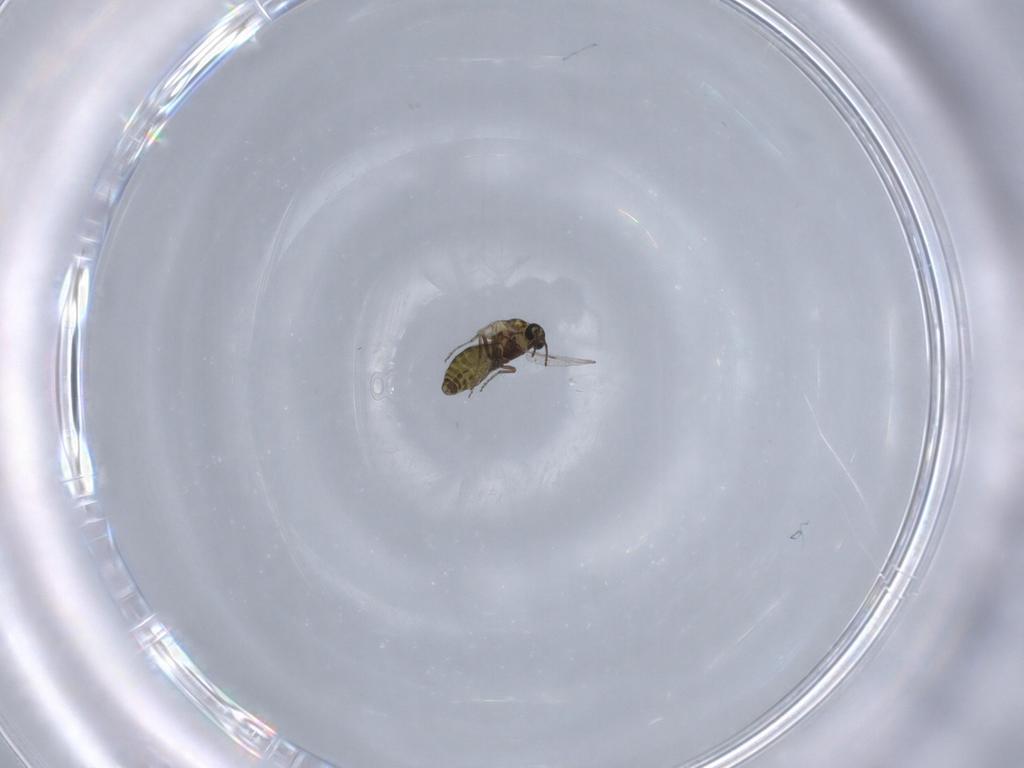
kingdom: Animalia
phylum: Arthropoda
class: Insecta
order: Diptera
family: Ceratopogonidae
